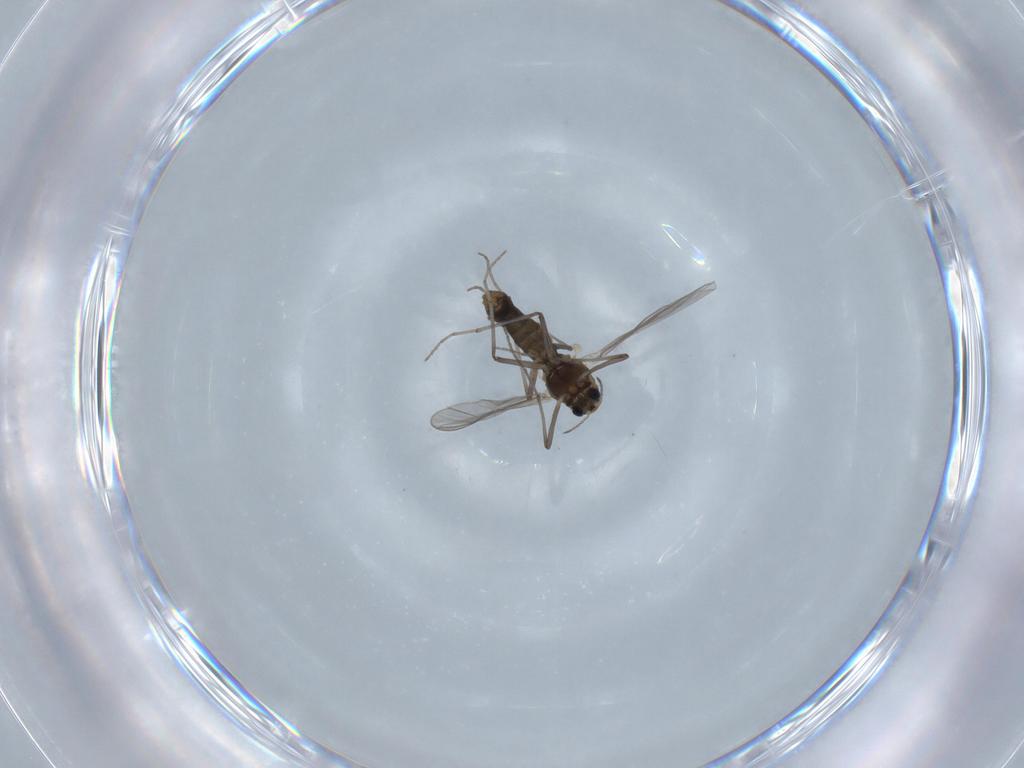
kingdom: Animalia
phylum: Arthropoda
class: Insecta
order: Diptera
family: Chironomidae
